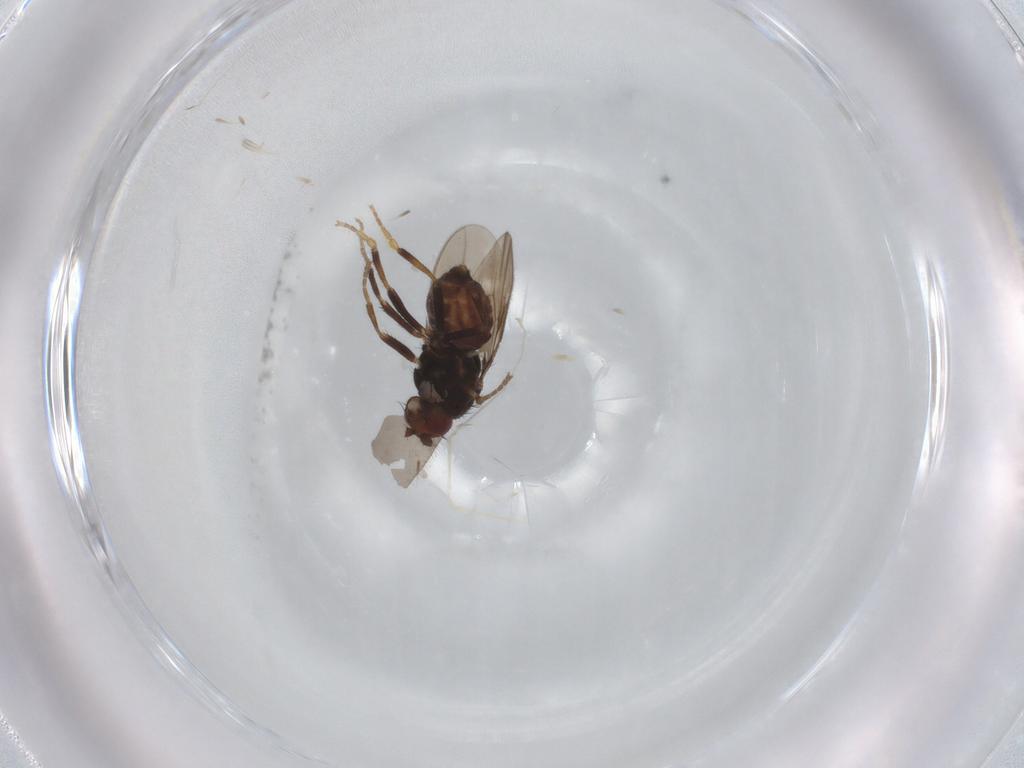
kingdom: Animalia
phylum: Arthropoda
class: Insecta
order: Diptera
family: Sphaeroceridae
